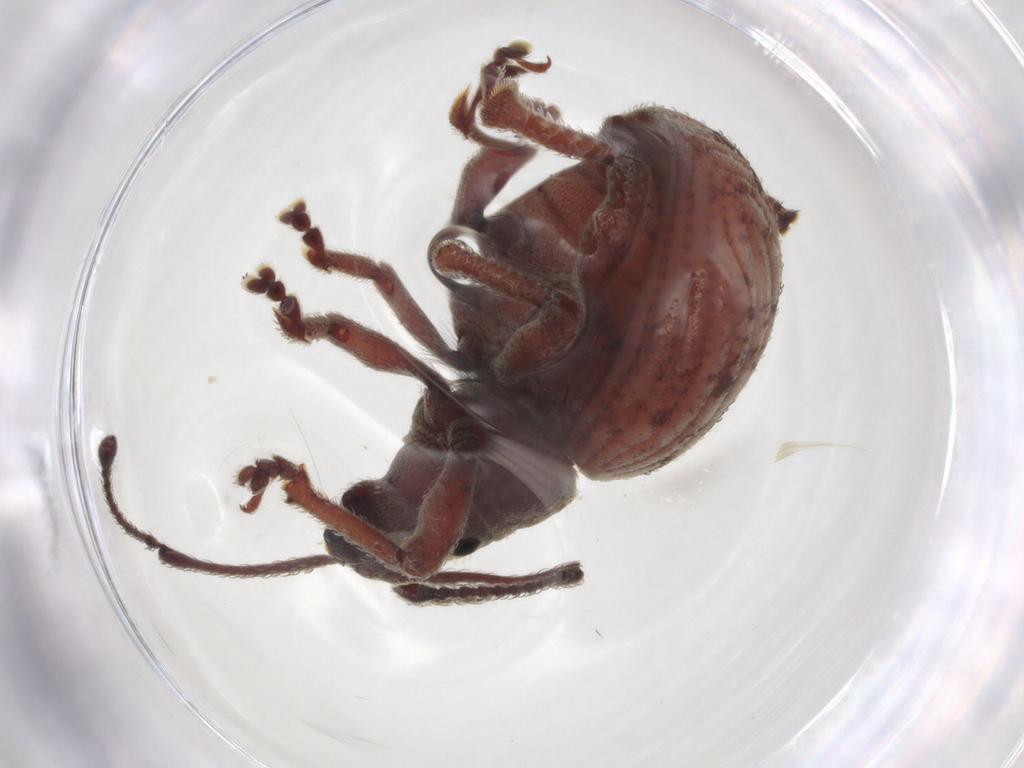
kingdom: Animalia
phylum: Arthropoda
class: Insecta
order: Coleoptera
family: Curculionidae
